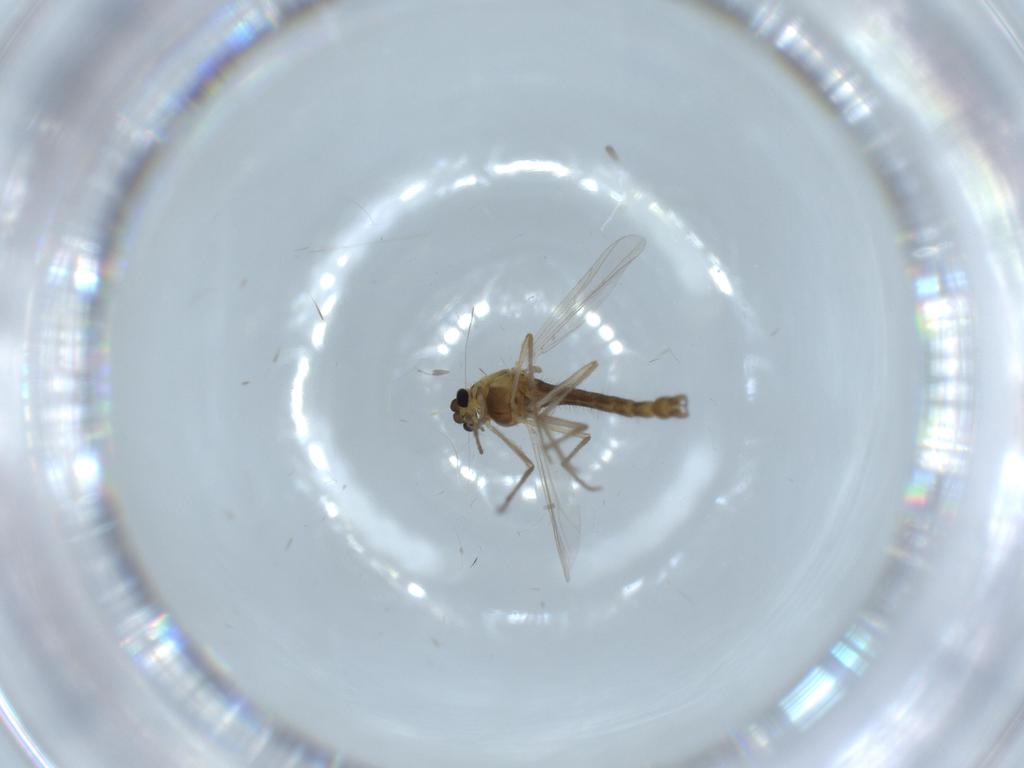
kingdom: Animalia
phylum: Arthropoda
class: Insecta
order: Diptera
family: Chironomidae
